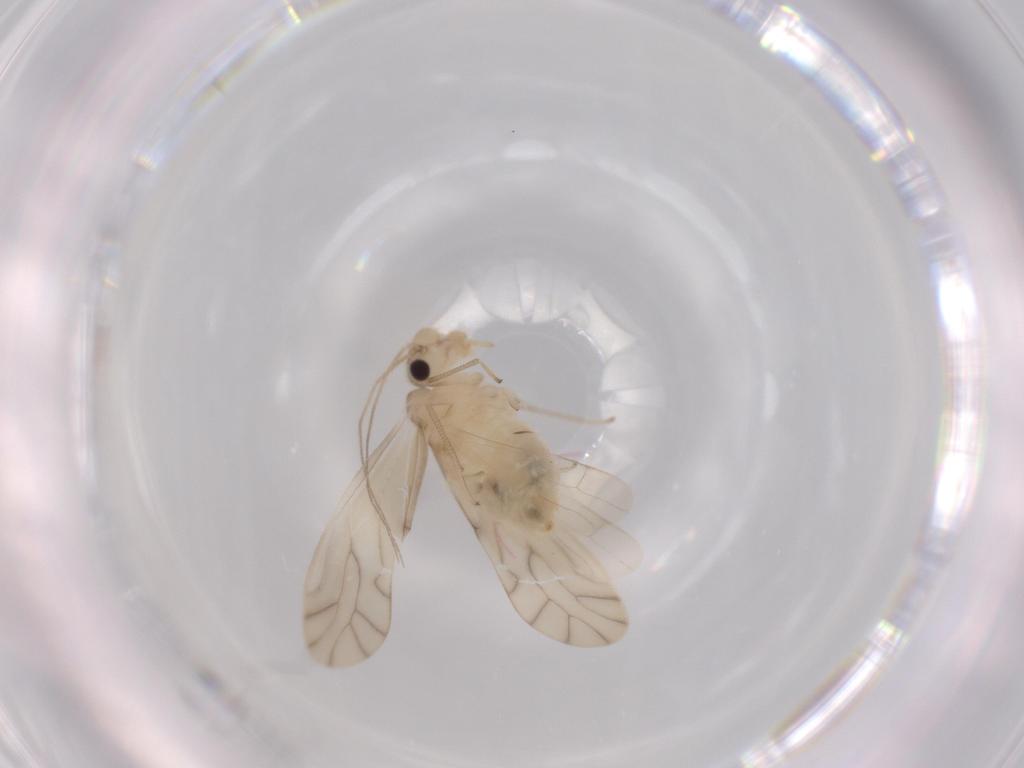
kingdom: Animalia
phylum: Arthropoda
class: Insecta
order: Psocodea
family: Caeciliusidae
